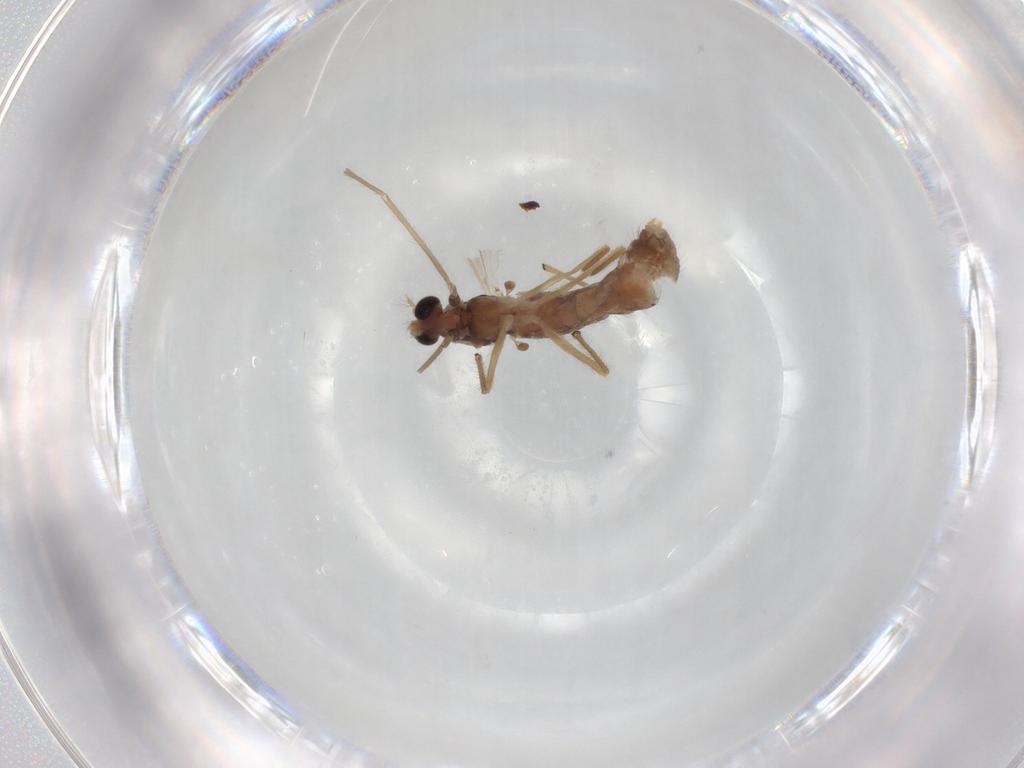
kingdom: Animalia
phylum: Arthropoda
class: Insecta
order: Diptera
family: Chironomidae
